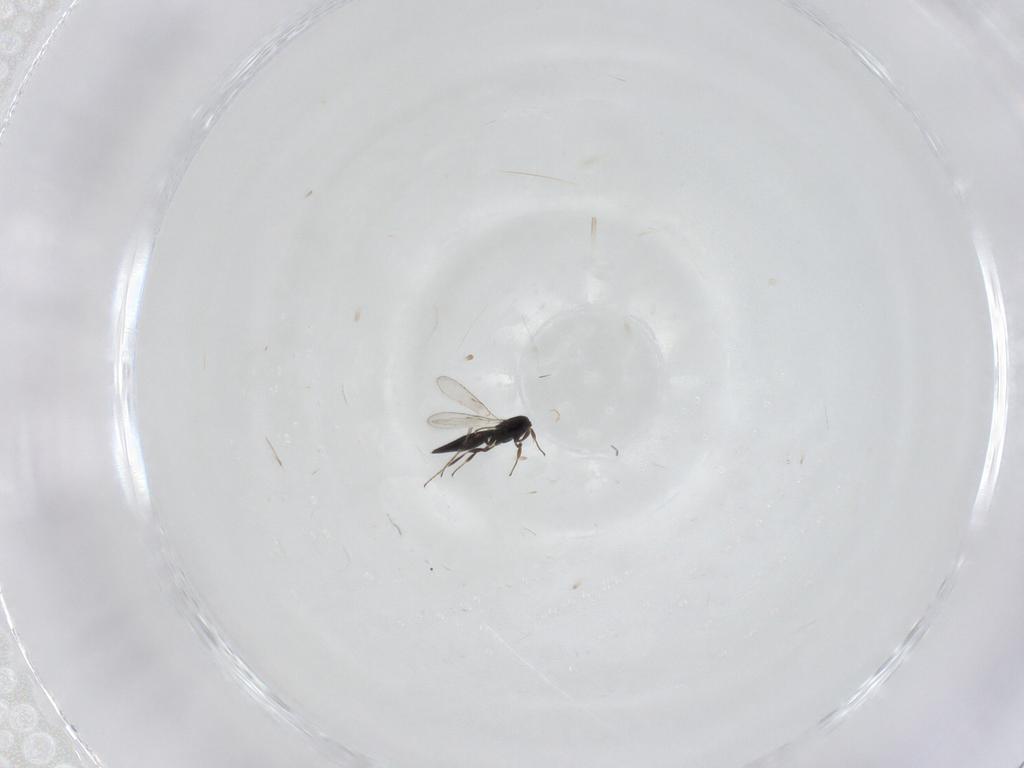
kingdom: Animalia
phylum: Arthropoda
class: Insecta
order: Hymenoptera
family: Scelionidae
